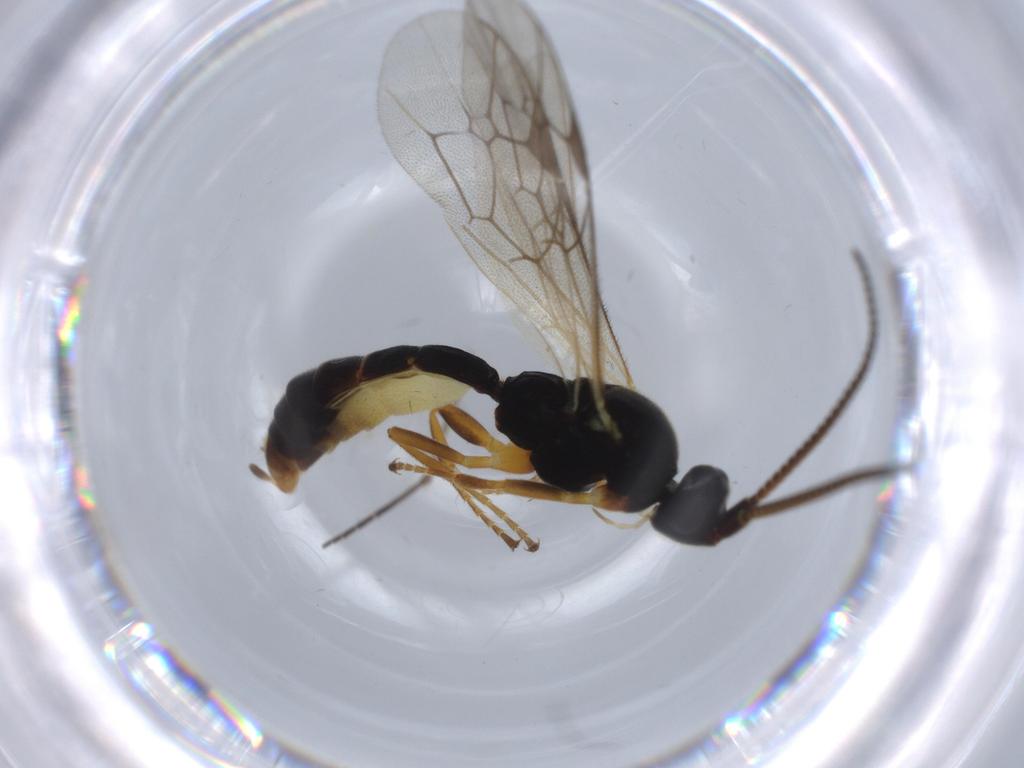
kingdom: Animalia
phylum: Arthropoda
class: Insecta
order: Hymenoptera
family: Ichneumonidae
